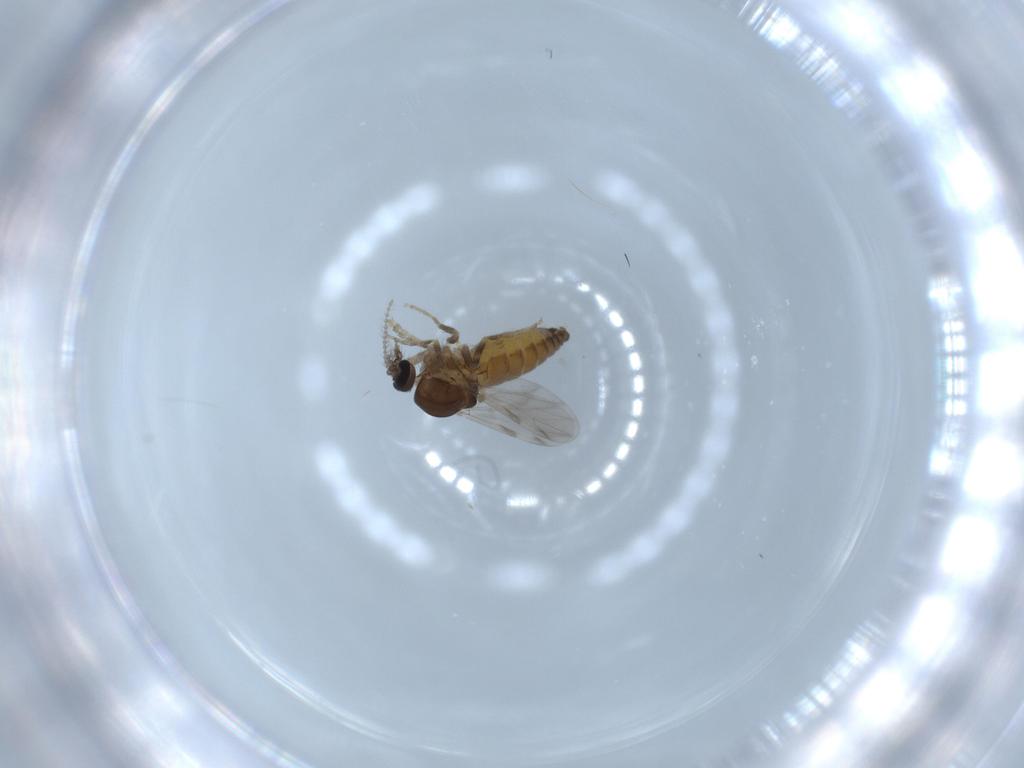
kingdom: Animalia
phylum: Arthropoda
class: Insecta
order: Diptera
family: Ceratopogonidae
